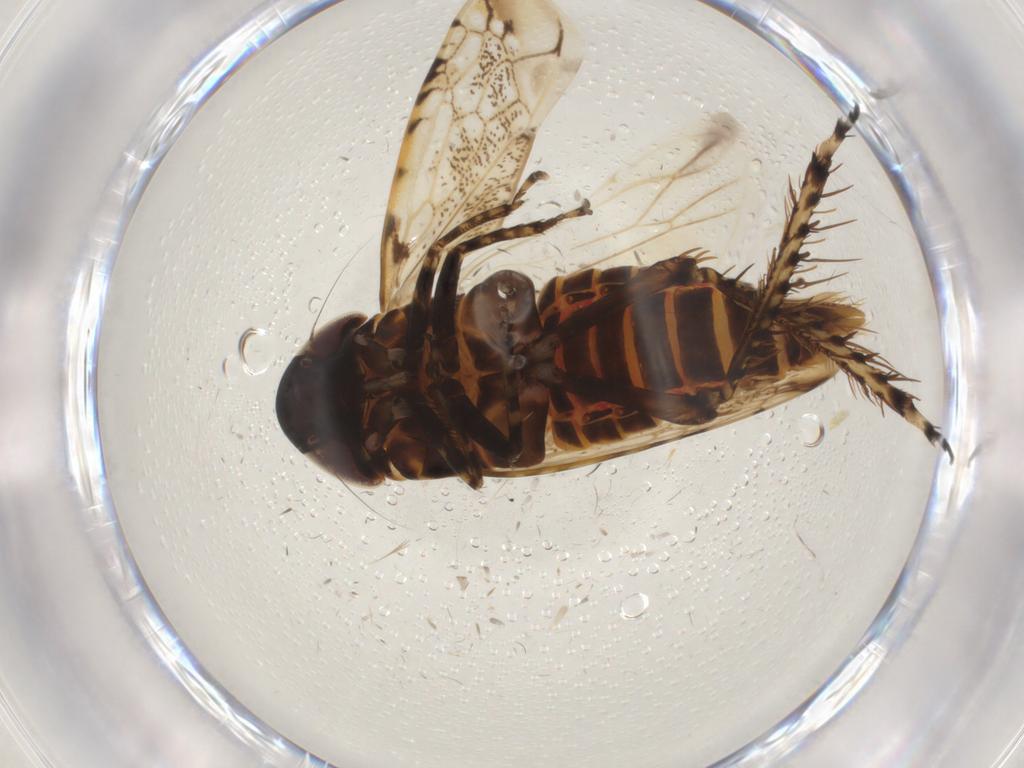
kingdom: Animalia
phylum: Arthropoda
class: Insecta
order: Hemiptera
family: Cicadellidae
